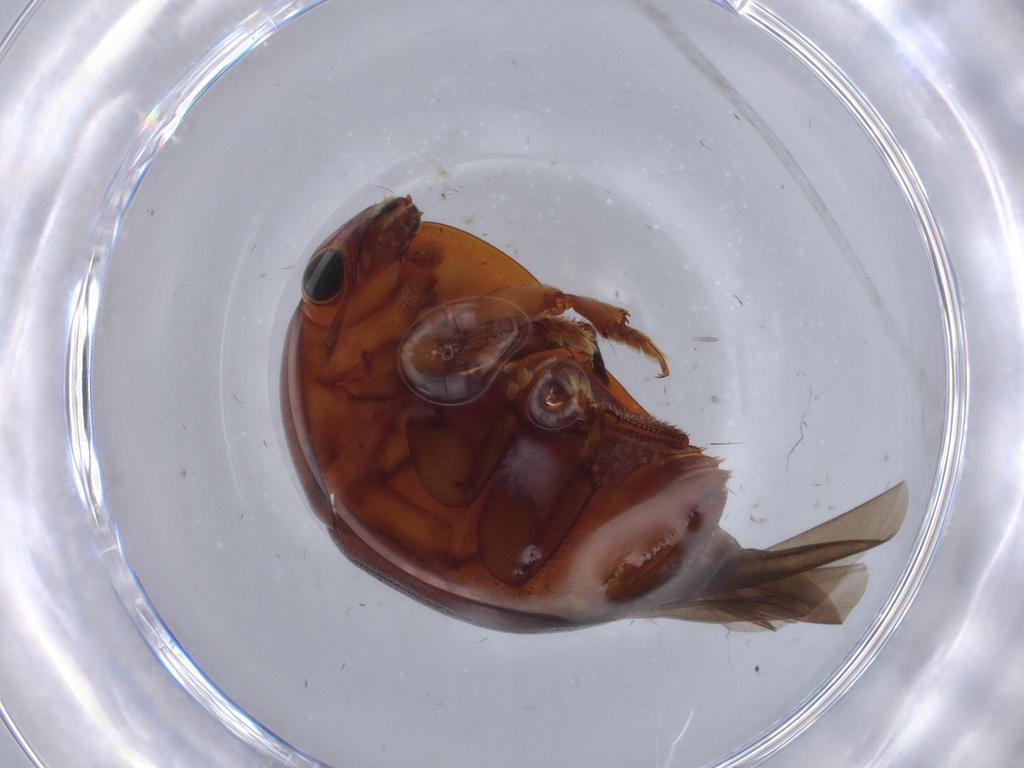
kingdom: Animalia
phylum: Arthropoda
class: Insecta
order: Coleoptera
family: Nitidulidae
